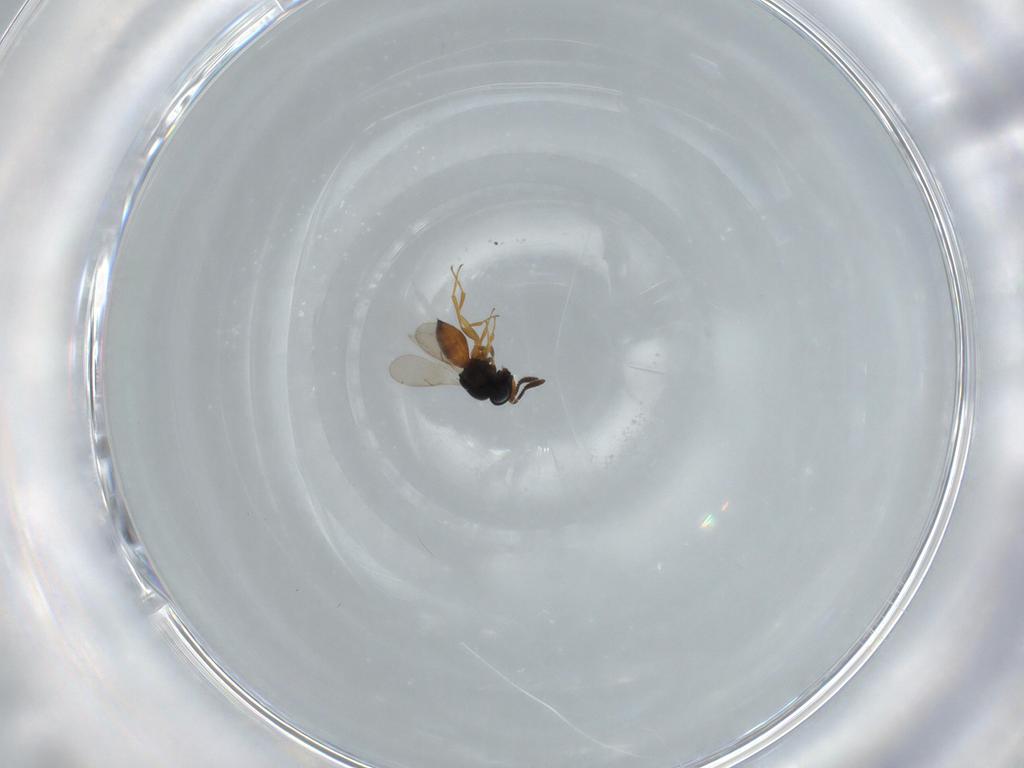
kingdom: Animalia
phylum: Arthropoda
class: Insecta
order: Hymenoptera
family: Scelionidae
